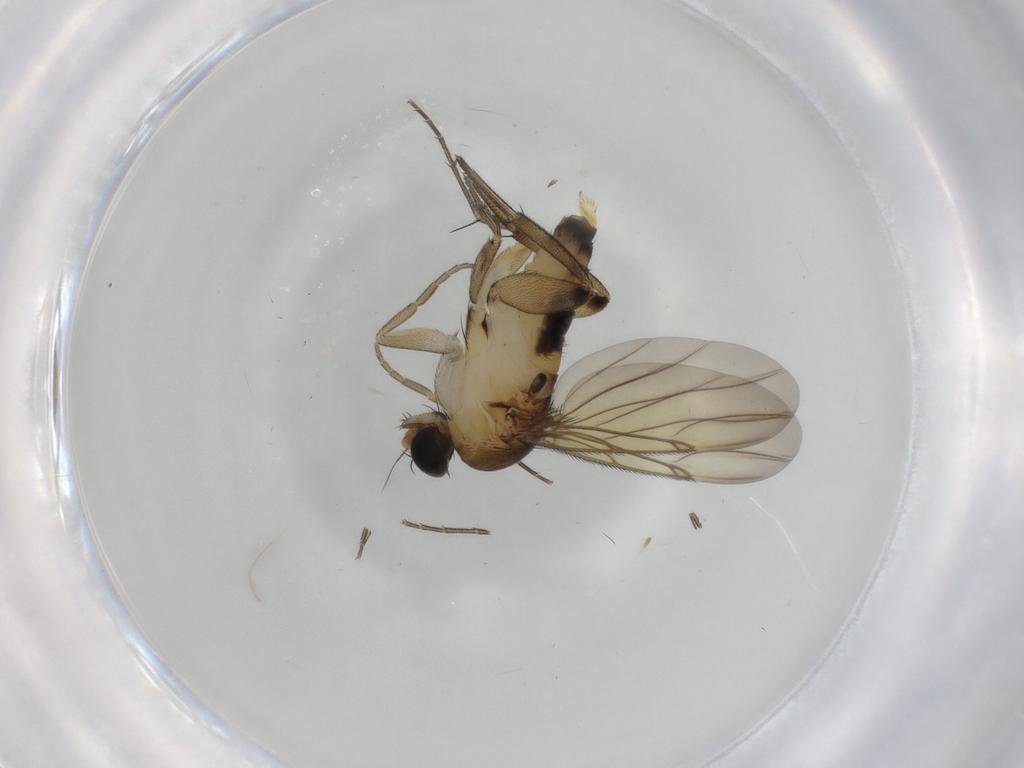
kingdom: Animalia
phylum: Arthropoda
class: Insecta
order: Diptera
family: Phoridae
